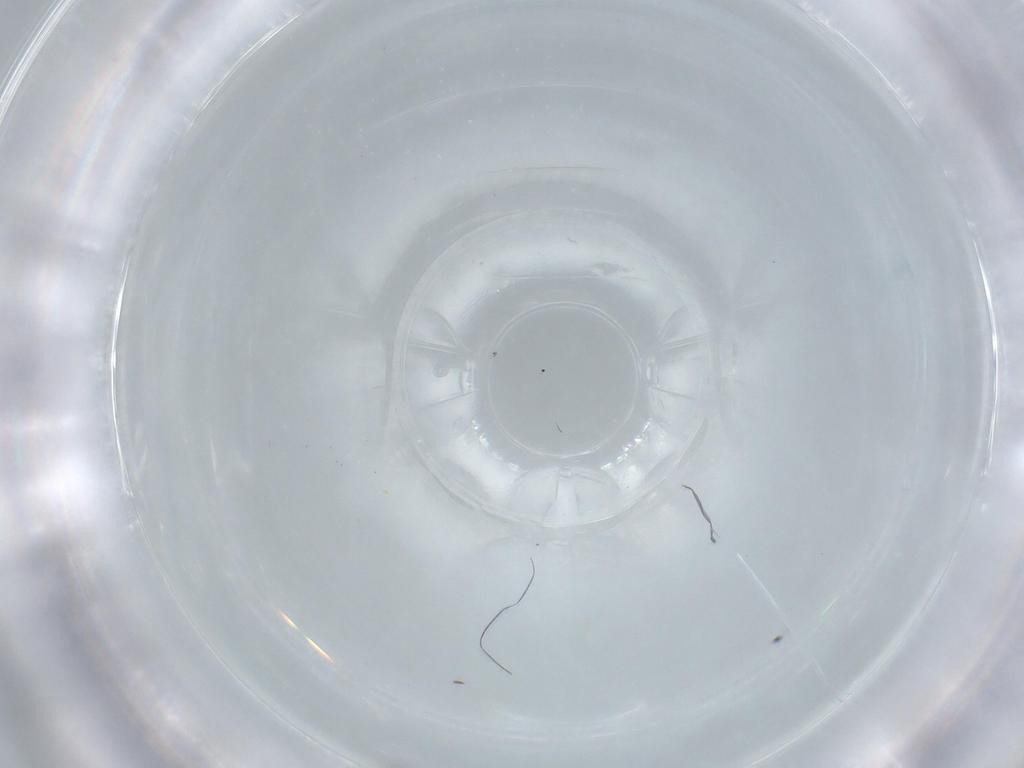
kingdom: Animalia
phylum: Arthropoda
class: Insecta
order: Diptera
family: Cecidomyiidae
